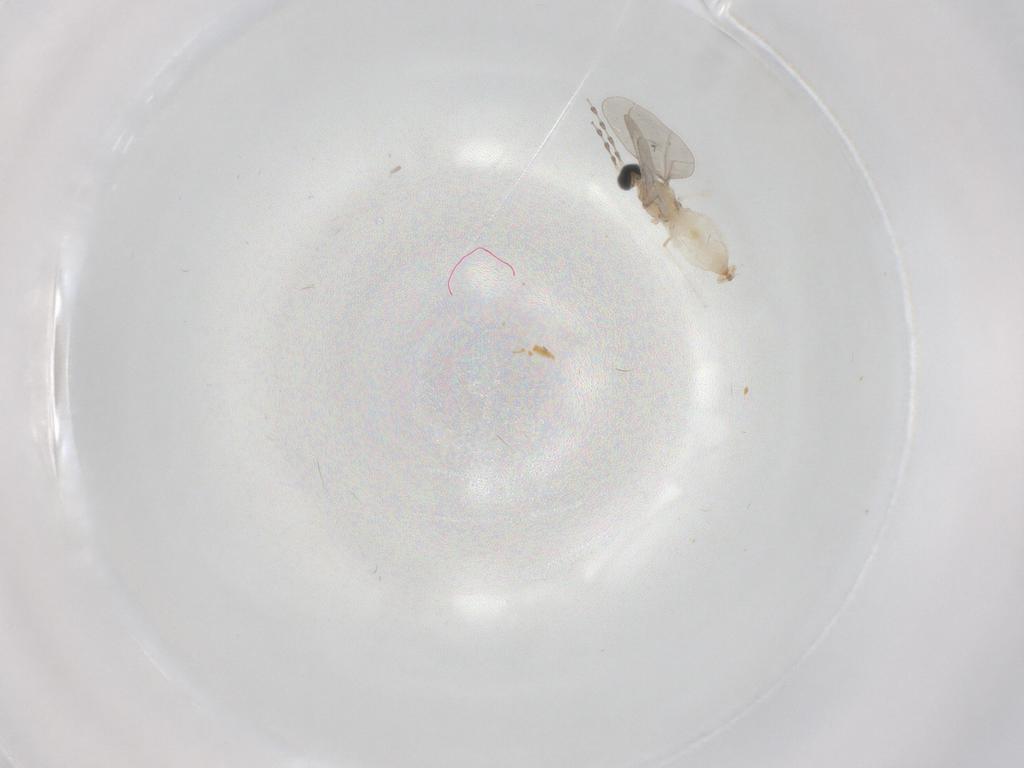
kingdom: Animalia
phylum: Arthropoda
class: Insecta
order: Diptera
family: Cecidomyiidae
